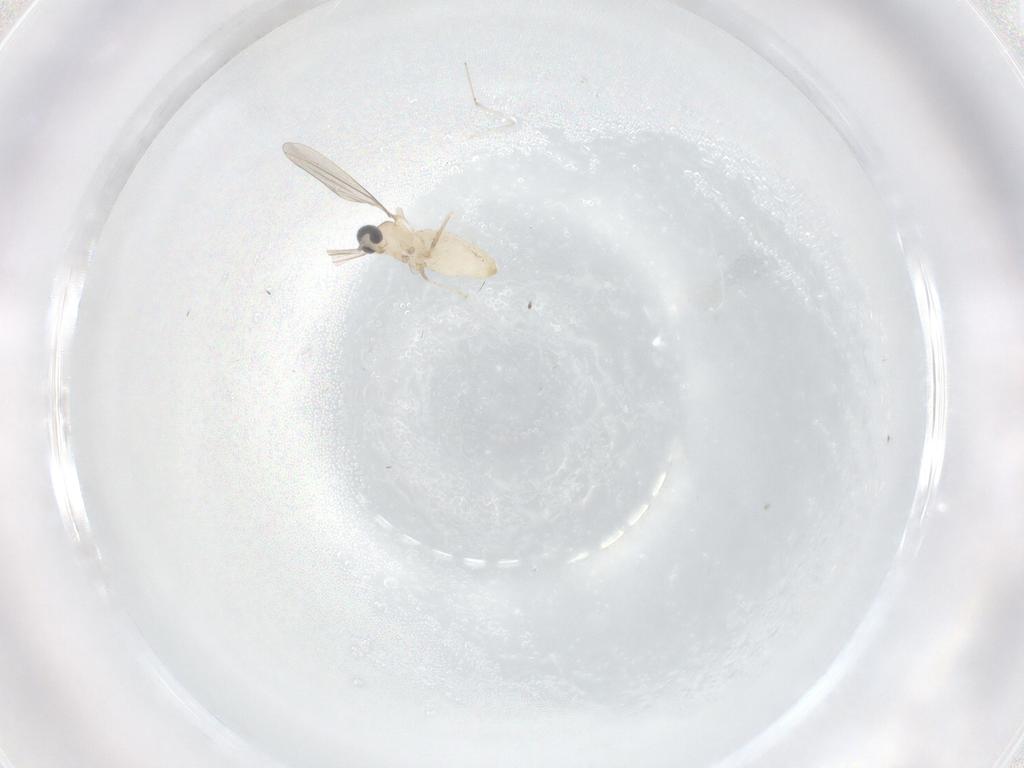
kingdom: Animalia
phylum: Arthropoda
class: Insecta
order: Diptera
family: Cecidomyiidae
